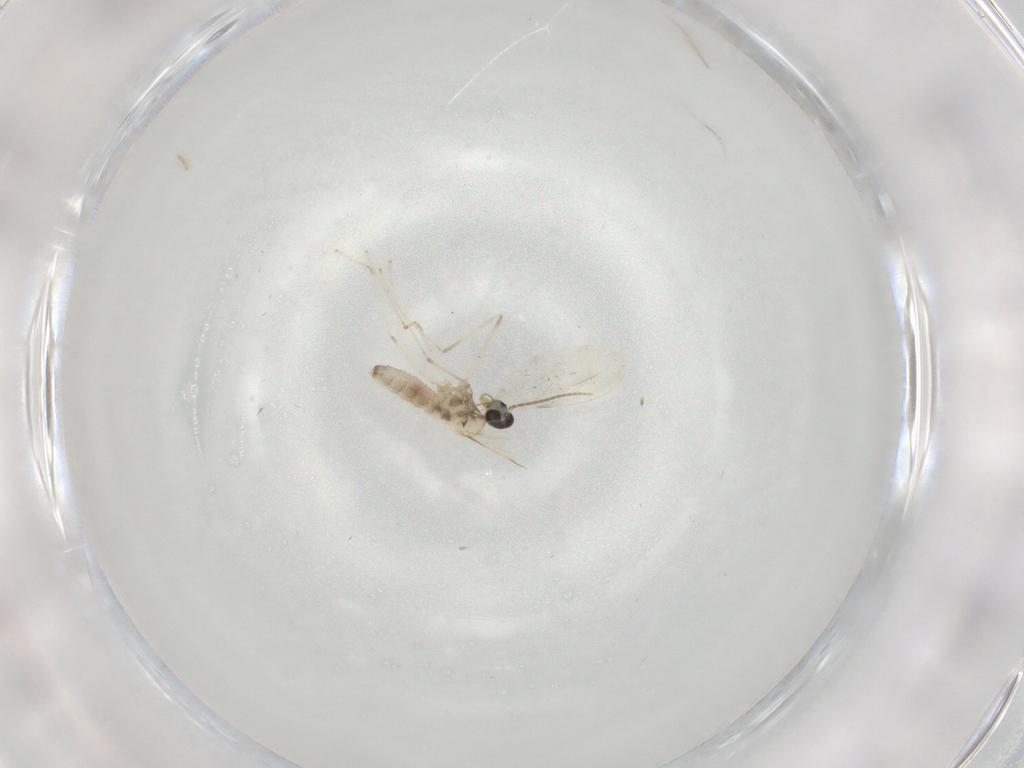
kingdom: Animalia
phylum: Arthropoda
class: Insecta
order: Diptera
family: Cecidomyiidae
